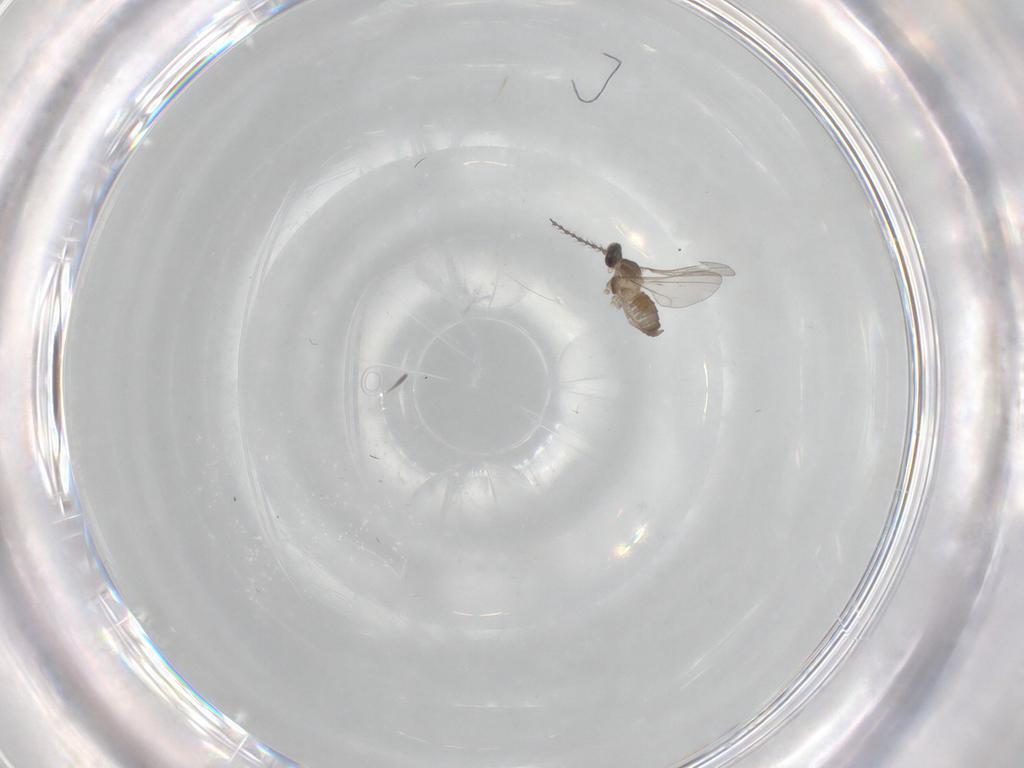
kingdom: Animalia
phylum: Arthropoda
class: Insecta
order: Diptera
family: Cecidomyiidae
